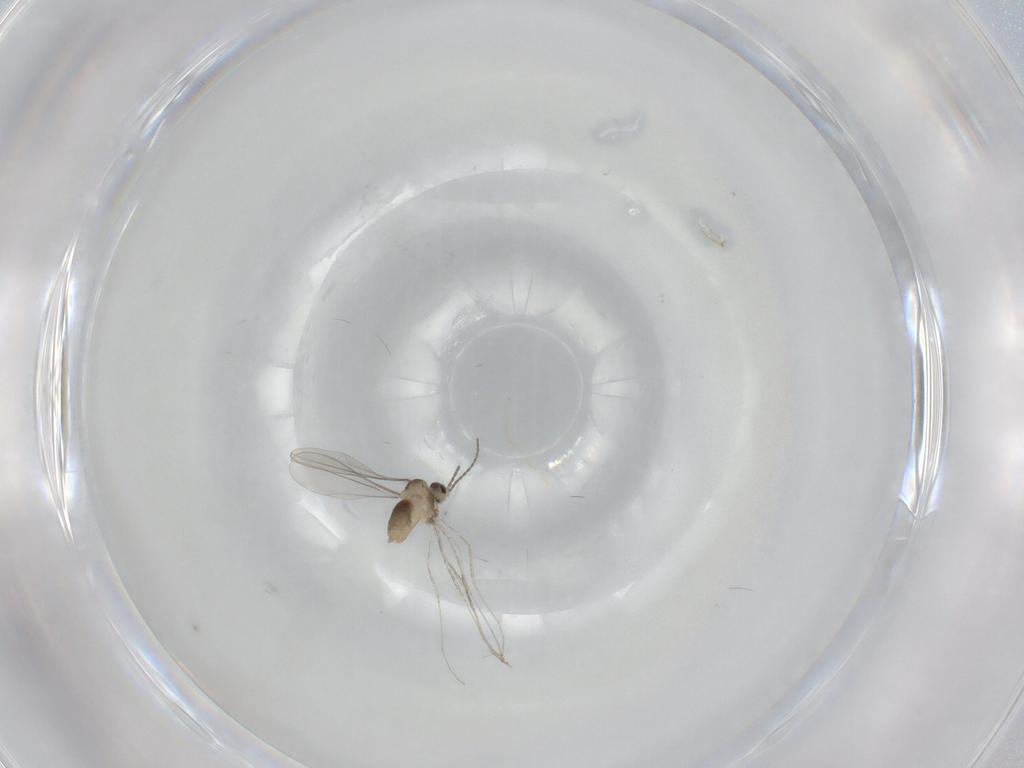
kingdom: Animalia
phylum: Arthropoda
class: Insecta
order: Diptera
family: Cecidomyiidae
